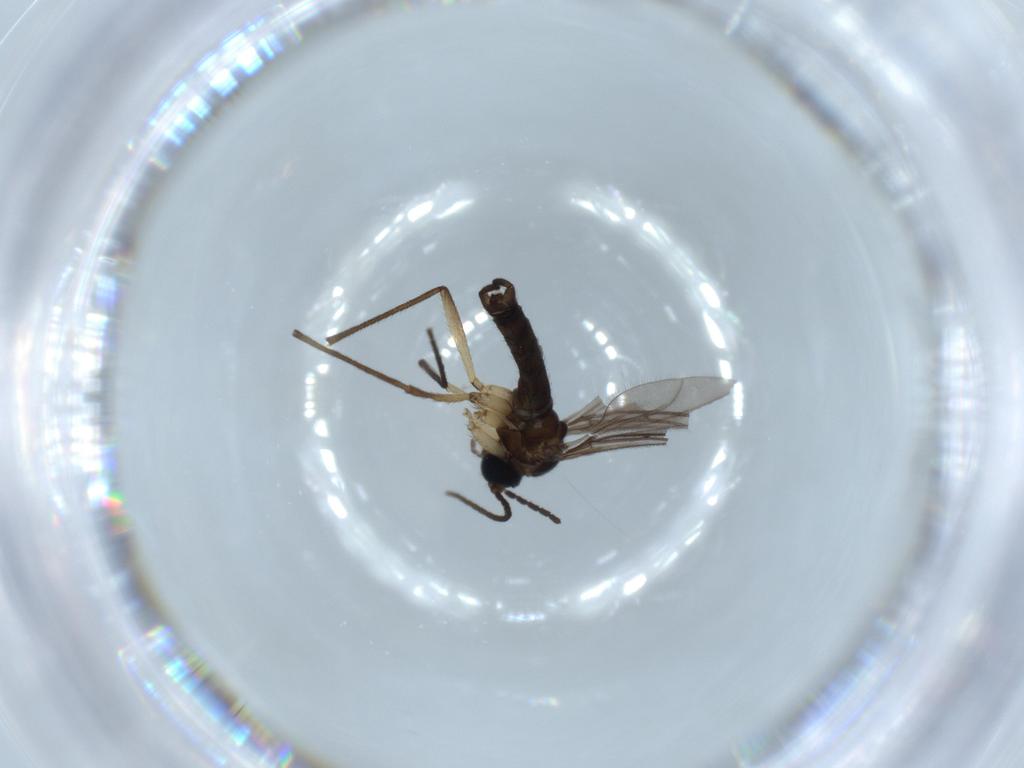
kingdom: Animalia
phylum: Arthropoda
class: Insecta
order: Diptera
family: Sciaridae
